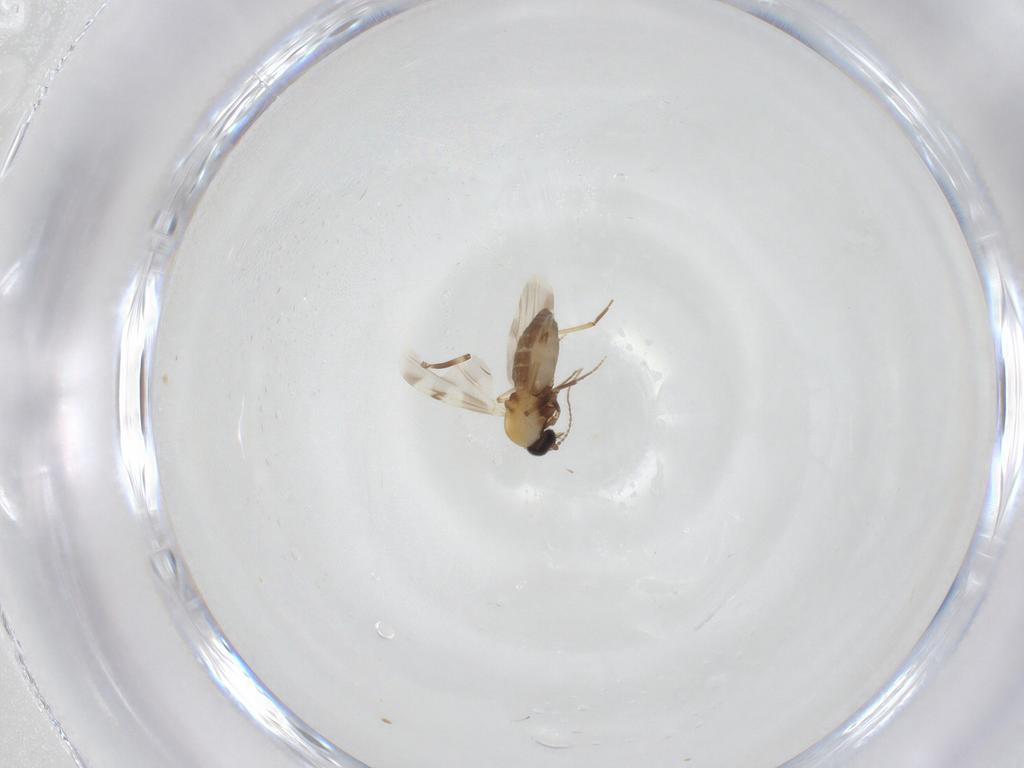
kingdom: Animalia
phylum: Arthropoda
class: Insecta
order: Diptera
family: Ceratopogonidae
